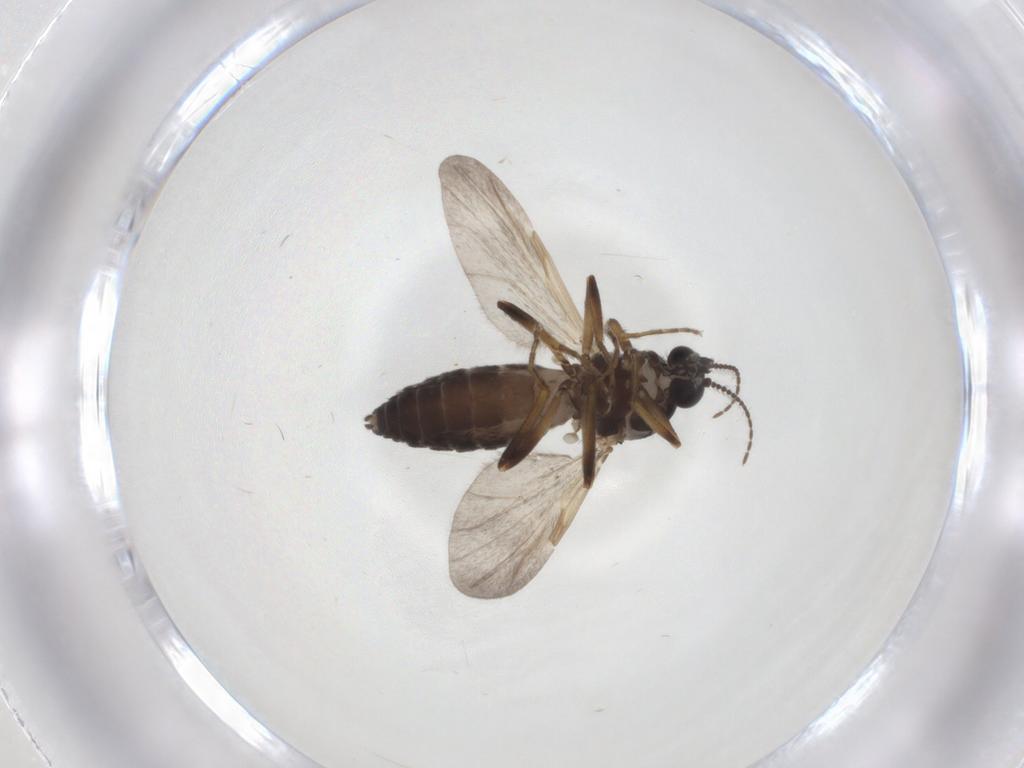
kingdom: Animalia
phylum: Arthropoda
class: Insecta
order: Diptera
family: Ceratopogonidae
